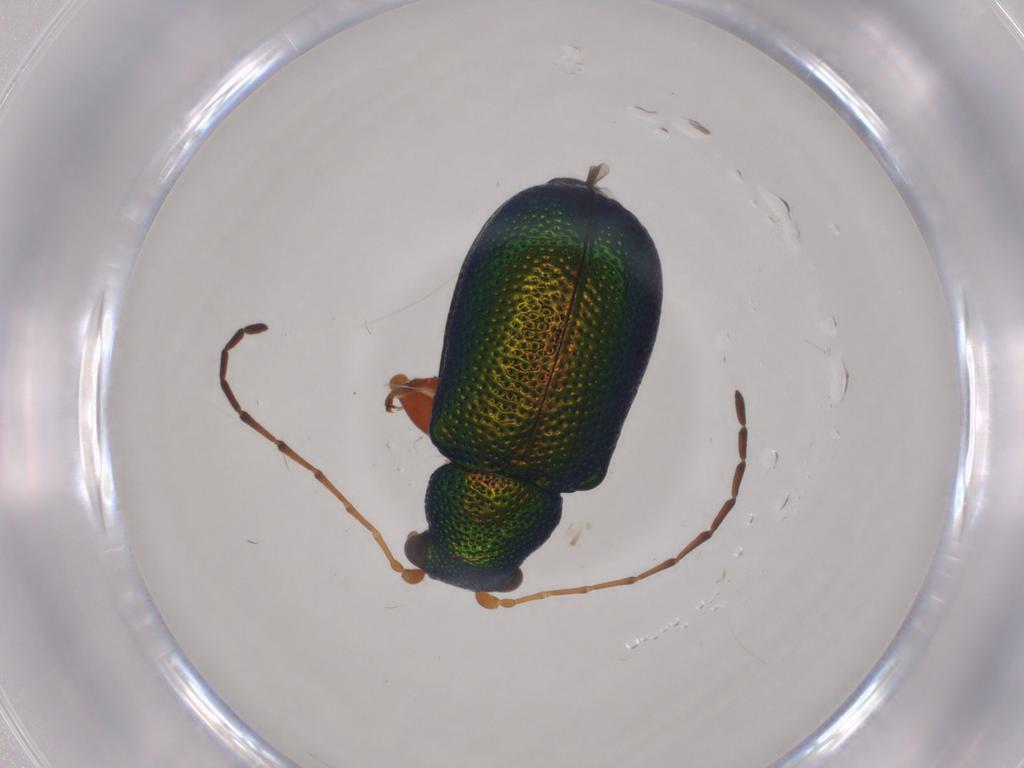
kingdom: Animalia
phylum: Arthropoda
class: Insecta
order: Coleoptera
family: Chrysomelidae
